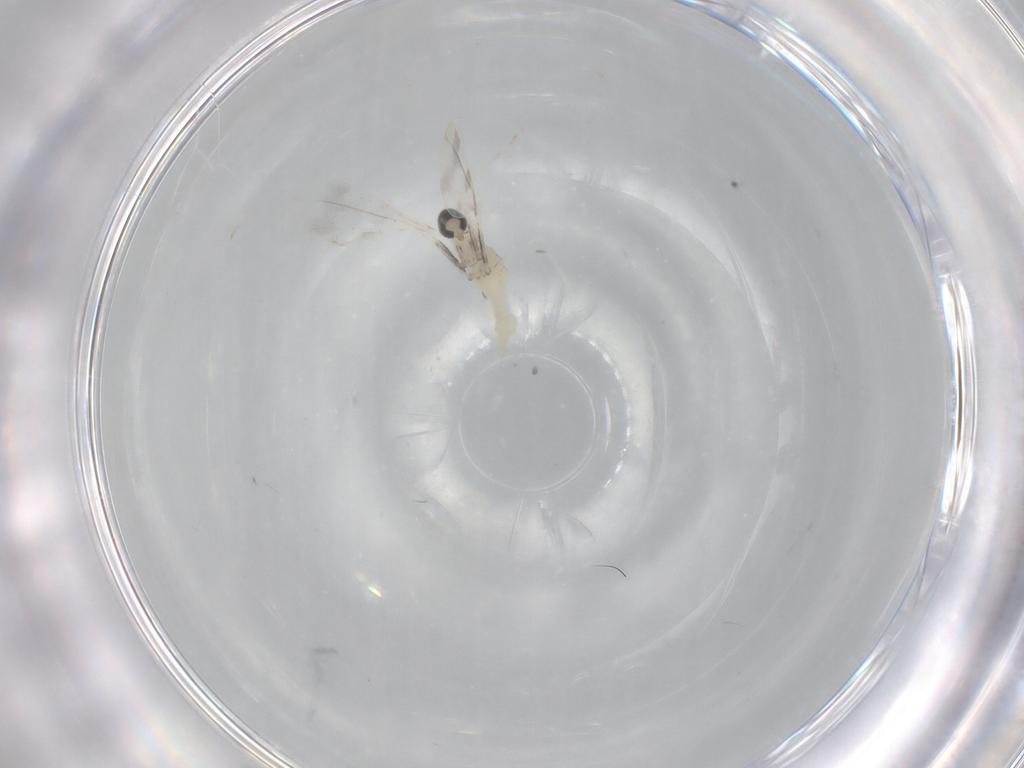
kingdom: Animalia
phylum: Arthropoda
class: Insecta
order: Diptera
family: Cecidomyiidae
